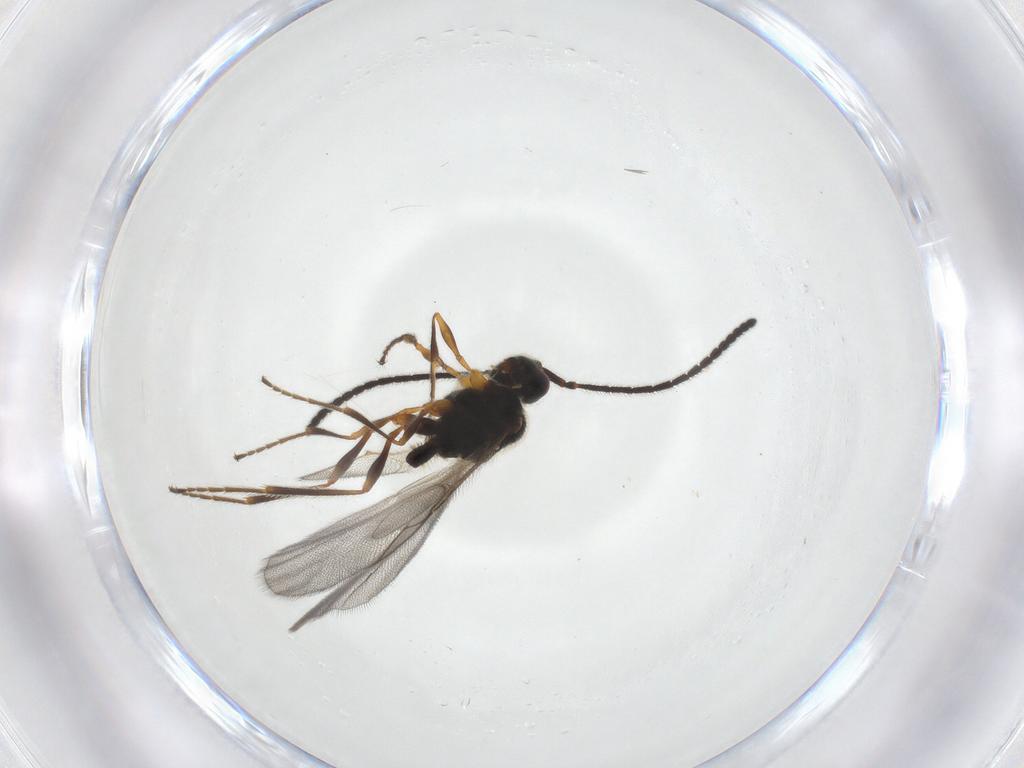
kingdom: Animalia
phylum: Arthropoda
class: Insecta
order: Hymenoptera
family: Diapriidae
